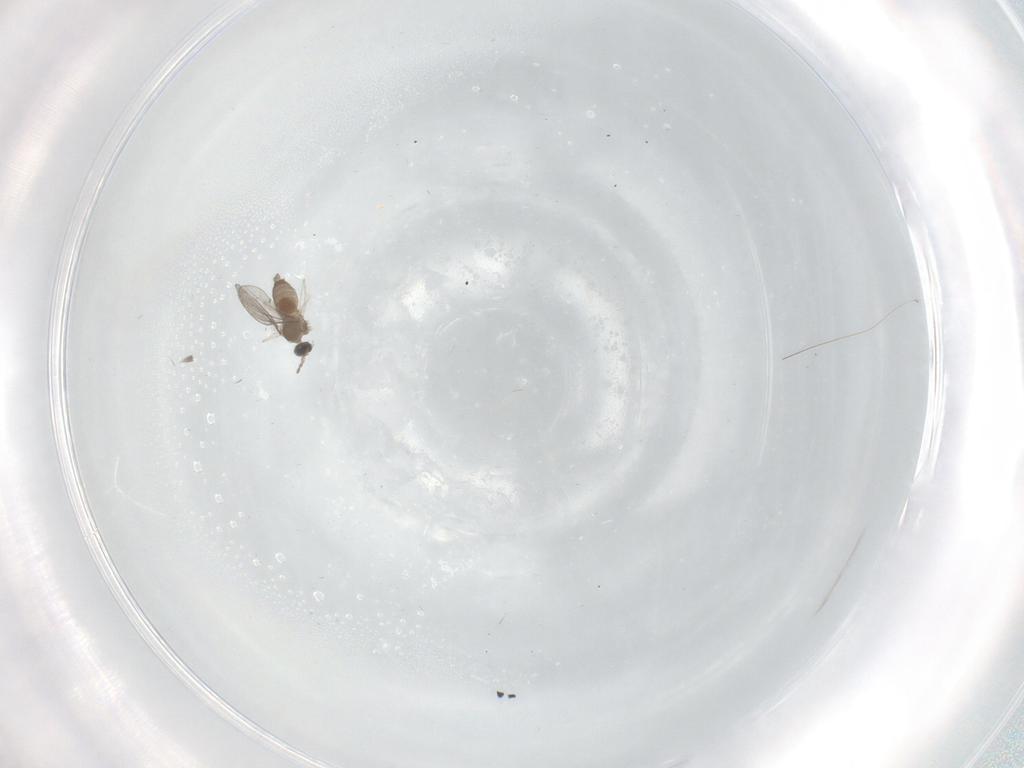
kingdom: Animalia
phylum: Arthropoda
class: Insecta
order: Diptera
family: Cecidomyiidae
